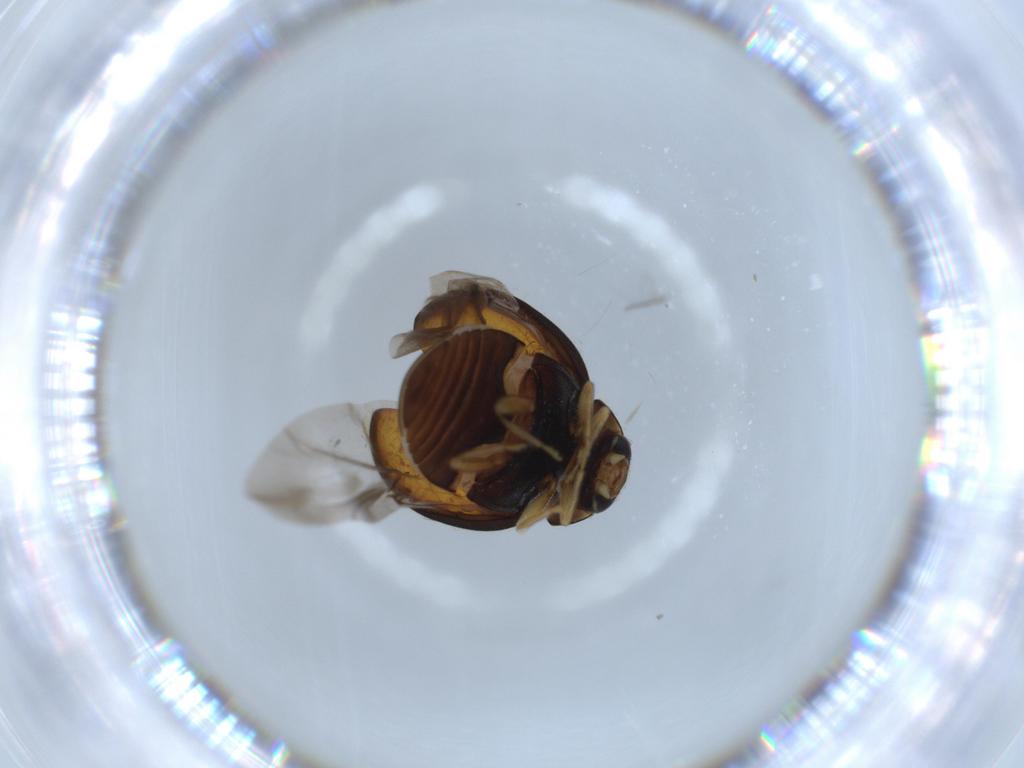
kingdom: Animalia
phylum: Arthropoda
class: Insecta
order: Coleoptera
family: Coccinellidae
